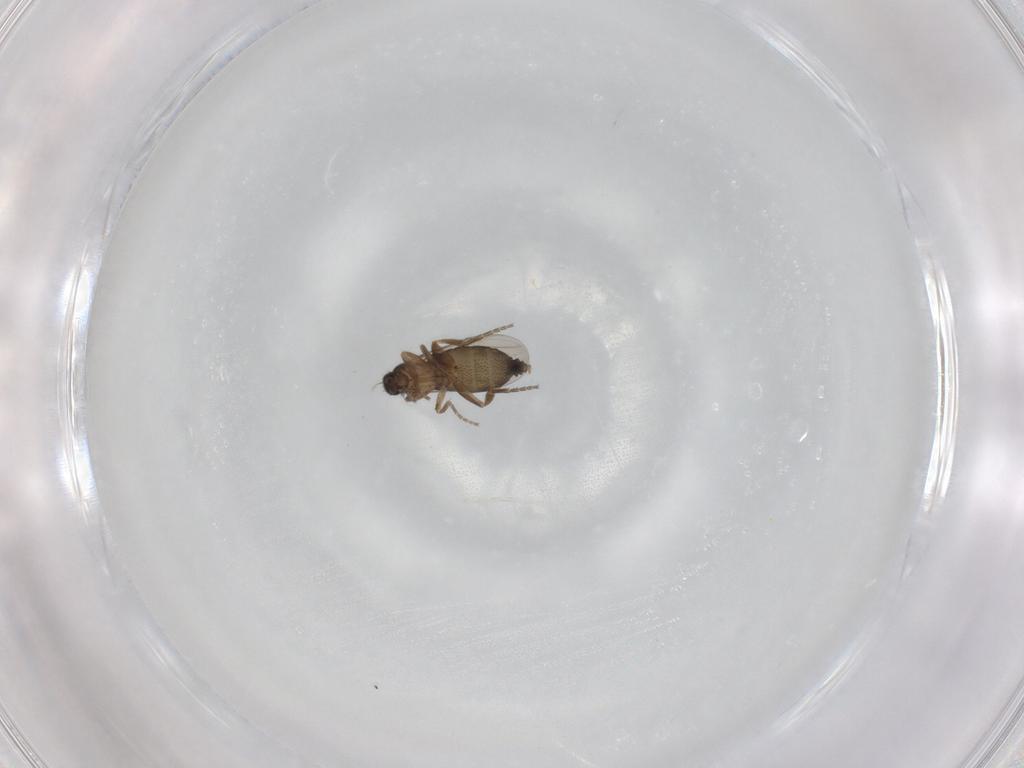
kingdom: Animalia
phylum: Arthropoda
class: Insecta
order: Diptera
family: Phoridae
